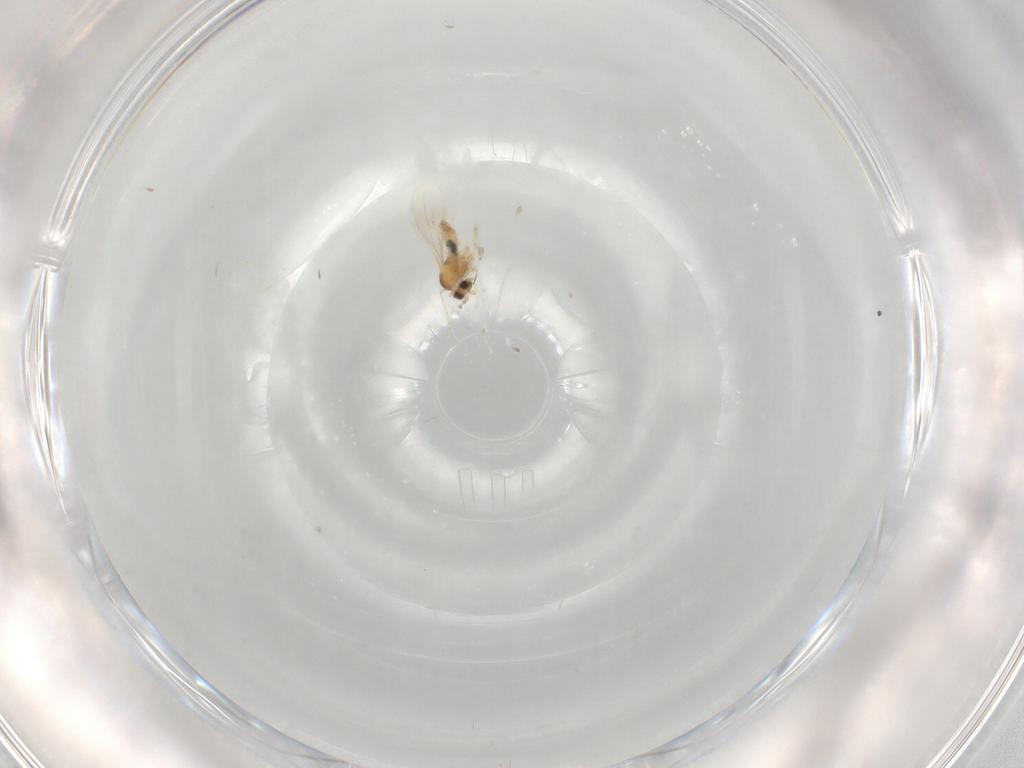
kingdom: Animalia
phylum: Arthropoda
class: Insecta
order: Diptera
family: Cecidomyiidae
